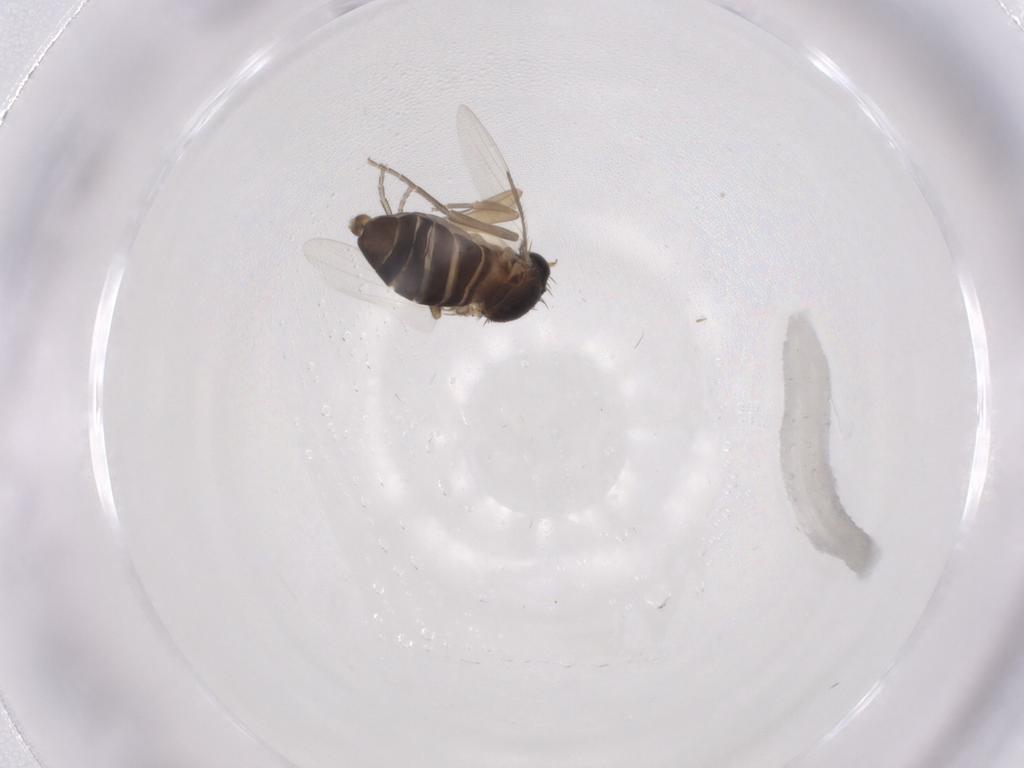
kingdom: Animalia
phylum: Arthropoda
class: Insecta
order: Diptera
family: Phoridae
